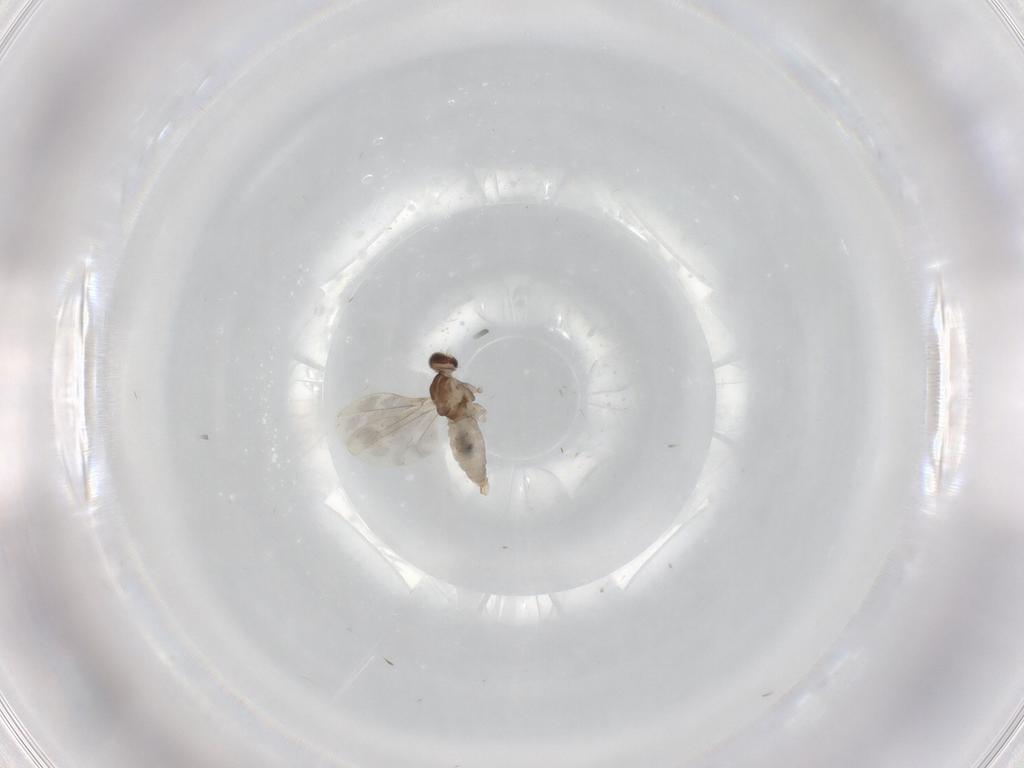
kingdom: Animalia
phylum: Arthropoda
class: Insecta
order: Diptera
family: Cecidomyiidae
